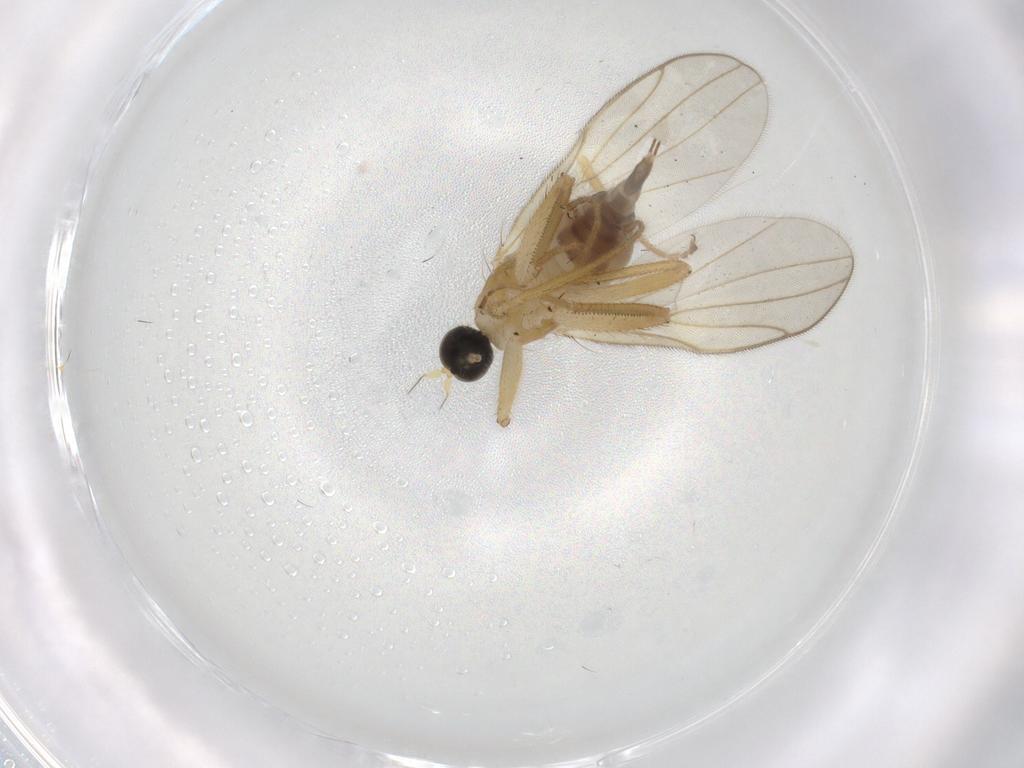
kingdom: Animalia
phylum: Arthropoda
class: Insecta
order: Diptera
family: Hybotidae
